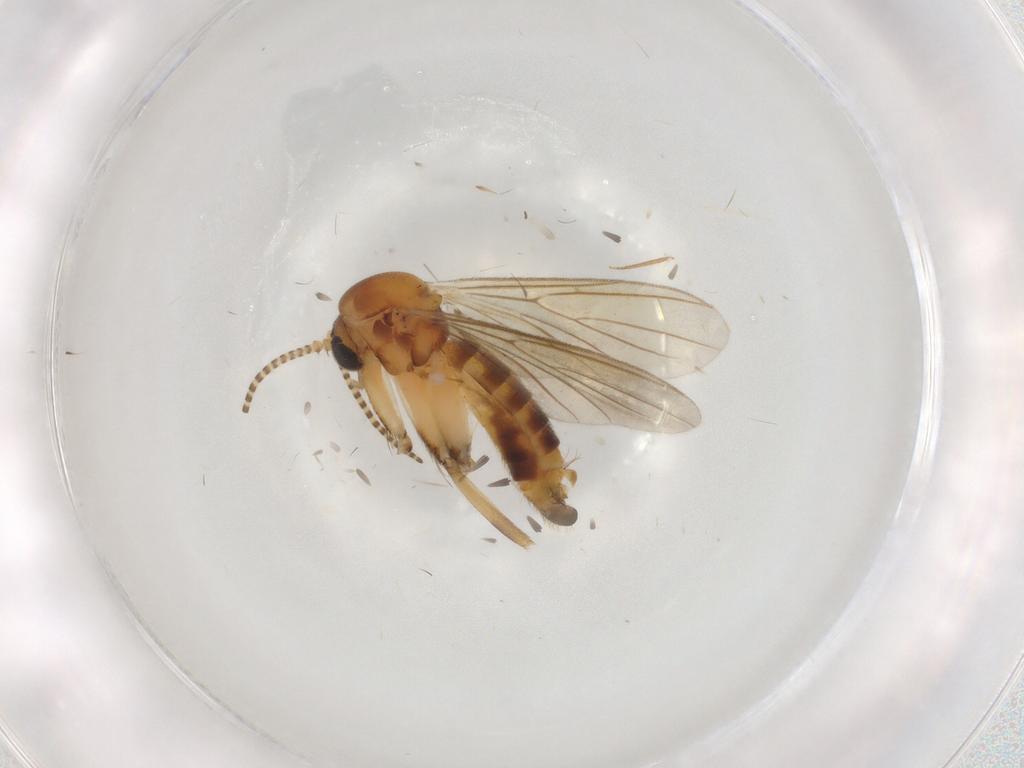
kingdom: Animalia
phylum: Arthropoda
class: Insecta
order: Diptera
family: Mycetophilidae
